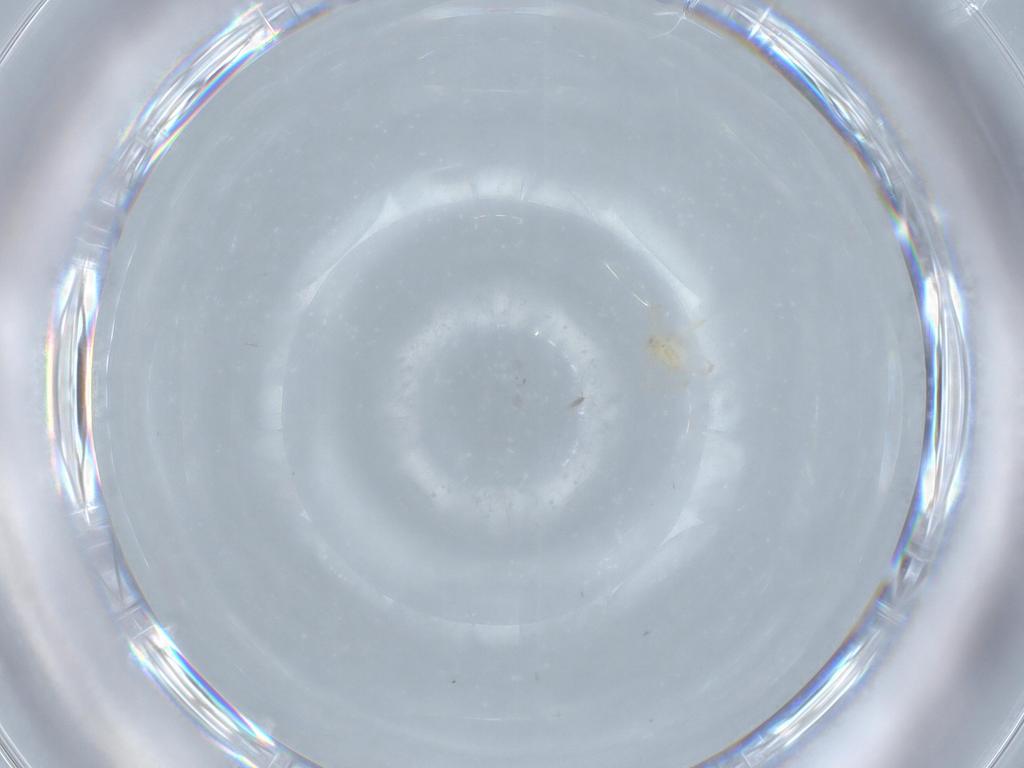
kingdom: Animalia
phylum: Arthropoda
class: Arachnida
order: Trombidiformes
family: Erythraeidae
